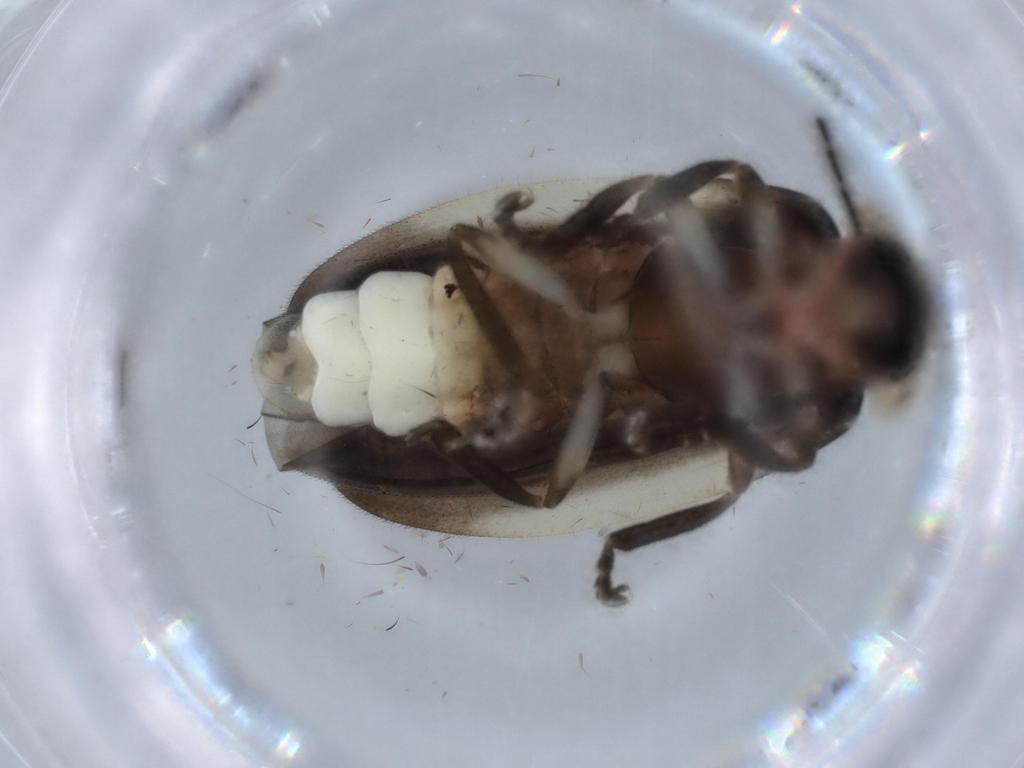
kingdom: Animalia
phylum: Arthropoda
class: Insecta
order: Coleoptera
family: Lampyridae
